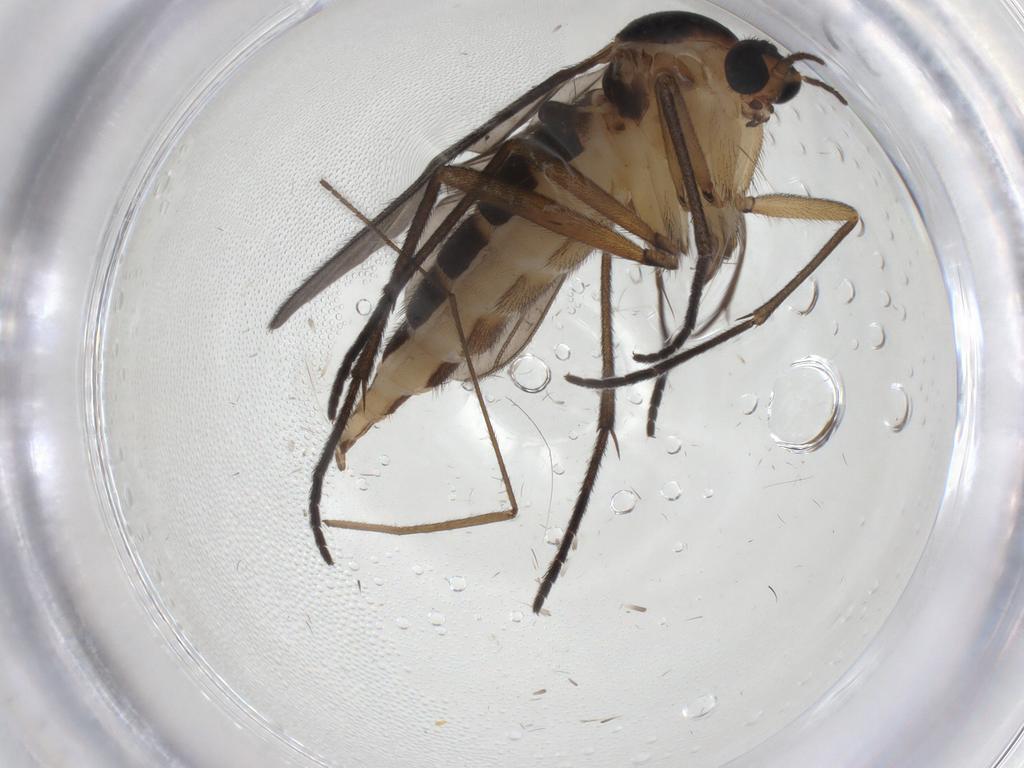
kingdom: Animalia
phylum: Arthropoda
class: Insecta
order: Diptera
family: Sciaridae
